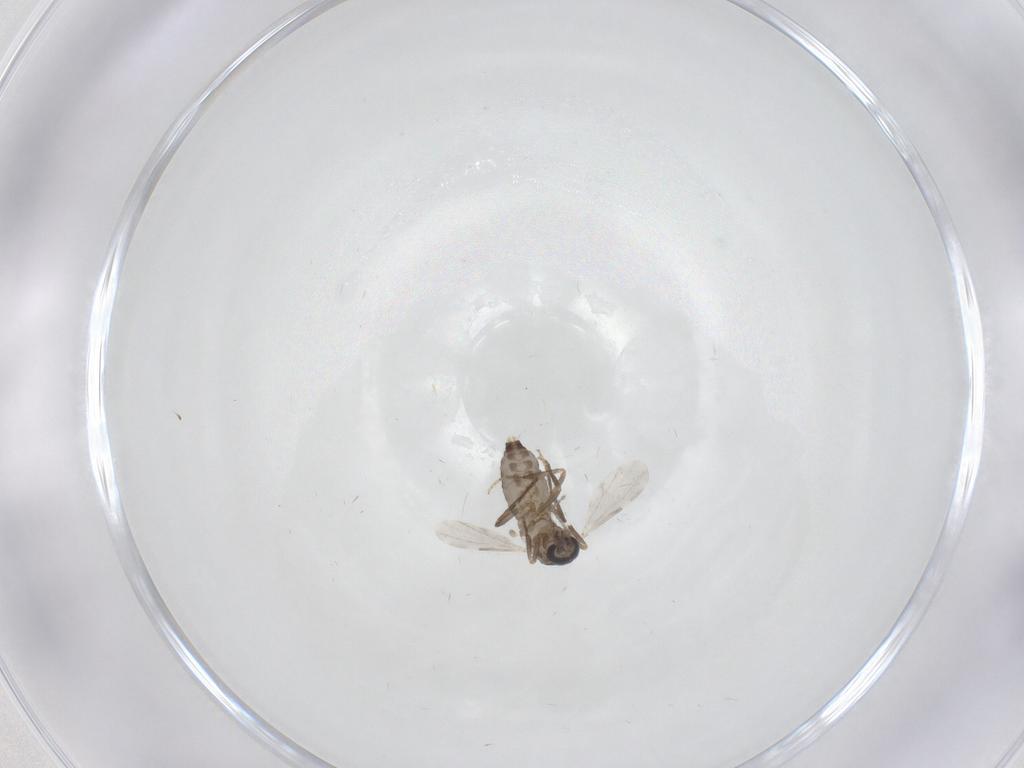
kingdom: Animalia
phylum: Arthropoda
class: Insecta
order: Diptera
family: Ceratopogonidae
